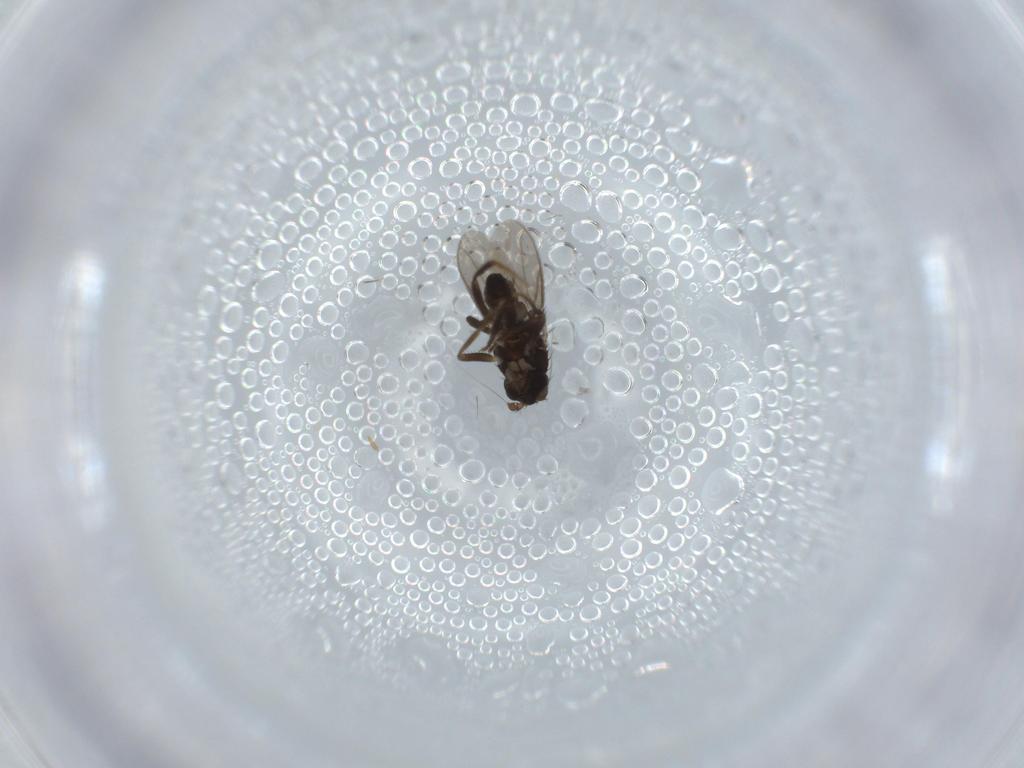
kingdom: Animalia
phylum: Arthropoda
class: Insecta
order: Diptera
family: Sphaeroceridae
